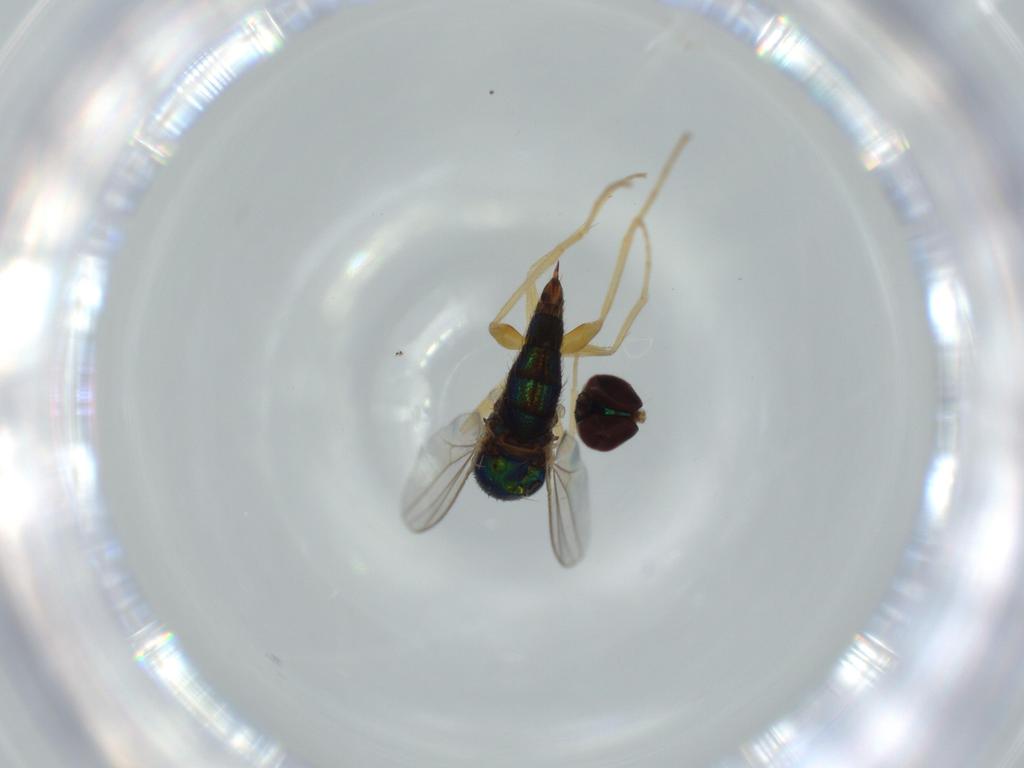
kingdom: Animalia
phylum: Arthropoda
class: Insecta
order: Diptera
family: Dolichopodidae
